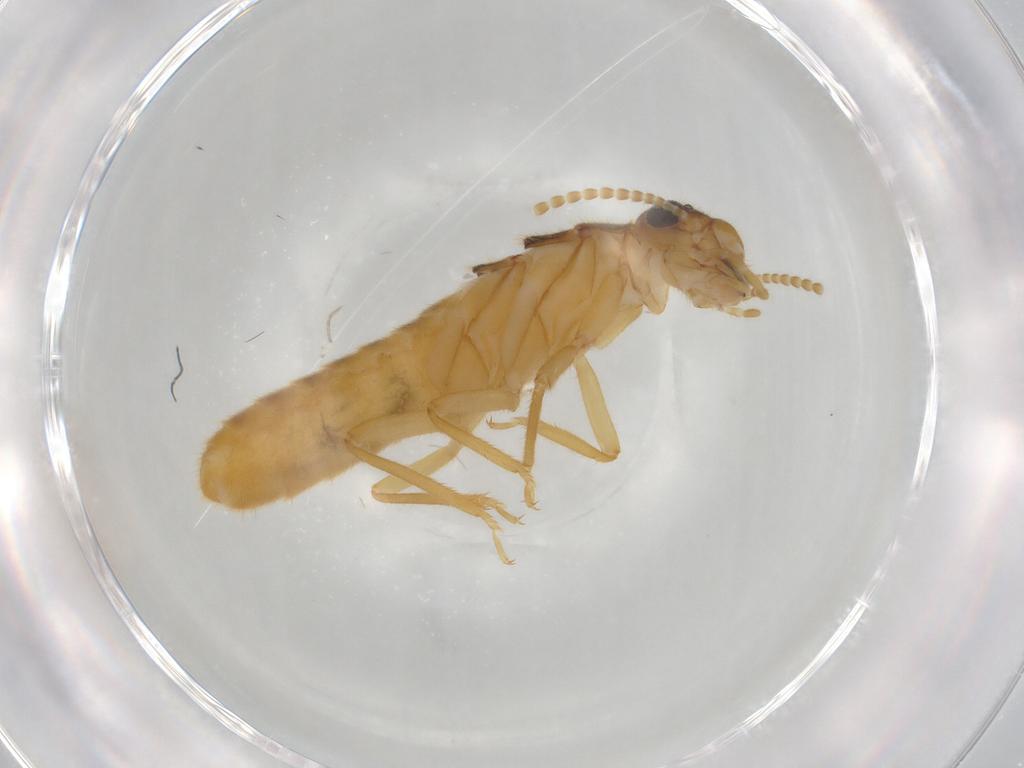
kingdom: Animalia
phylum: Arthropoda
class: Insecta
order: Blattodea
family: Termitidae
